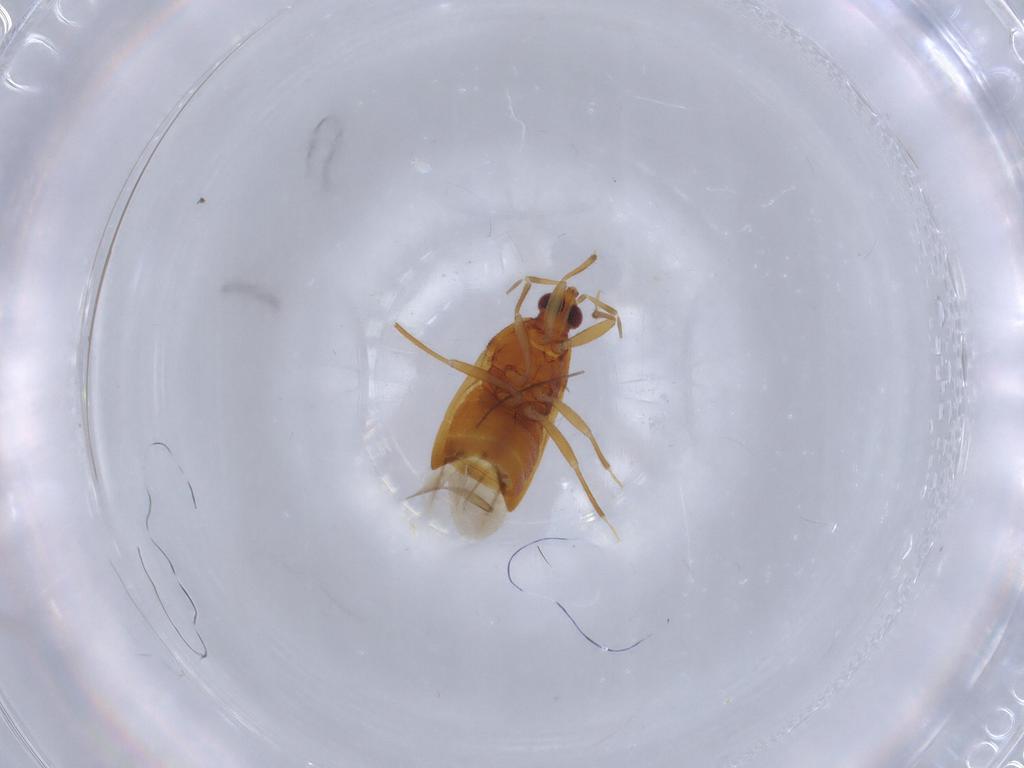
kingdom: Animalia
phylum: Arthropoda
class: Insecta
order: Hemiptera
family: Anthocoridae
